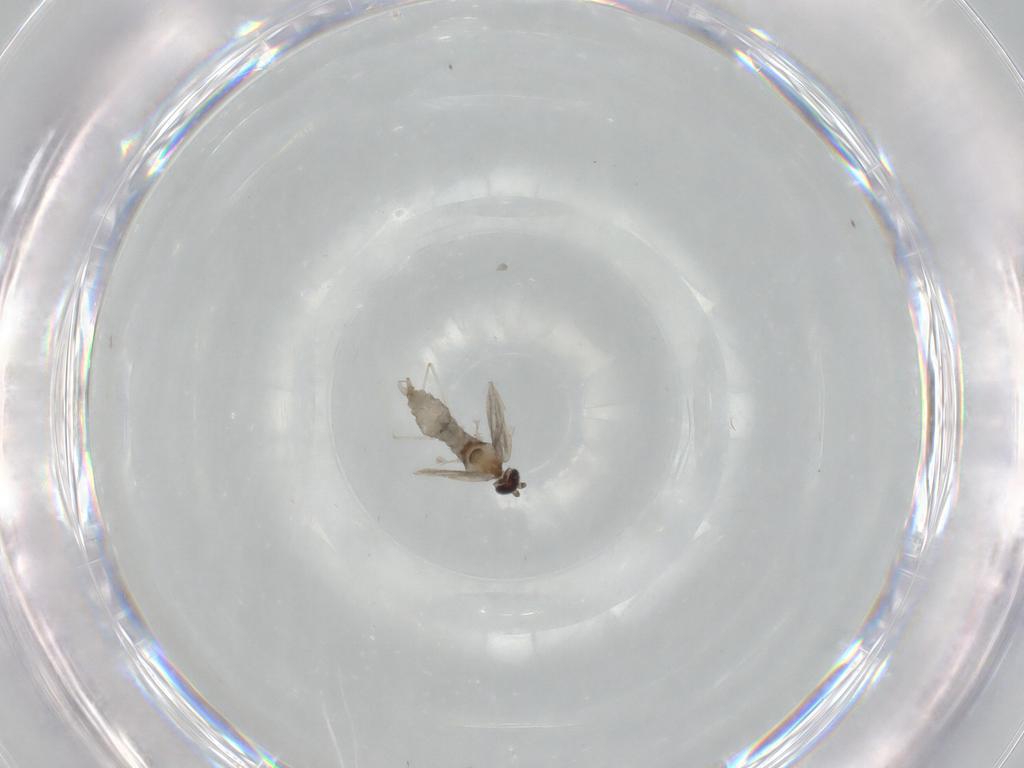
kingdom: Animalia
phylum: Arthropoda
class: Insecta
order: Diptera
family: Cecidomyiidae
